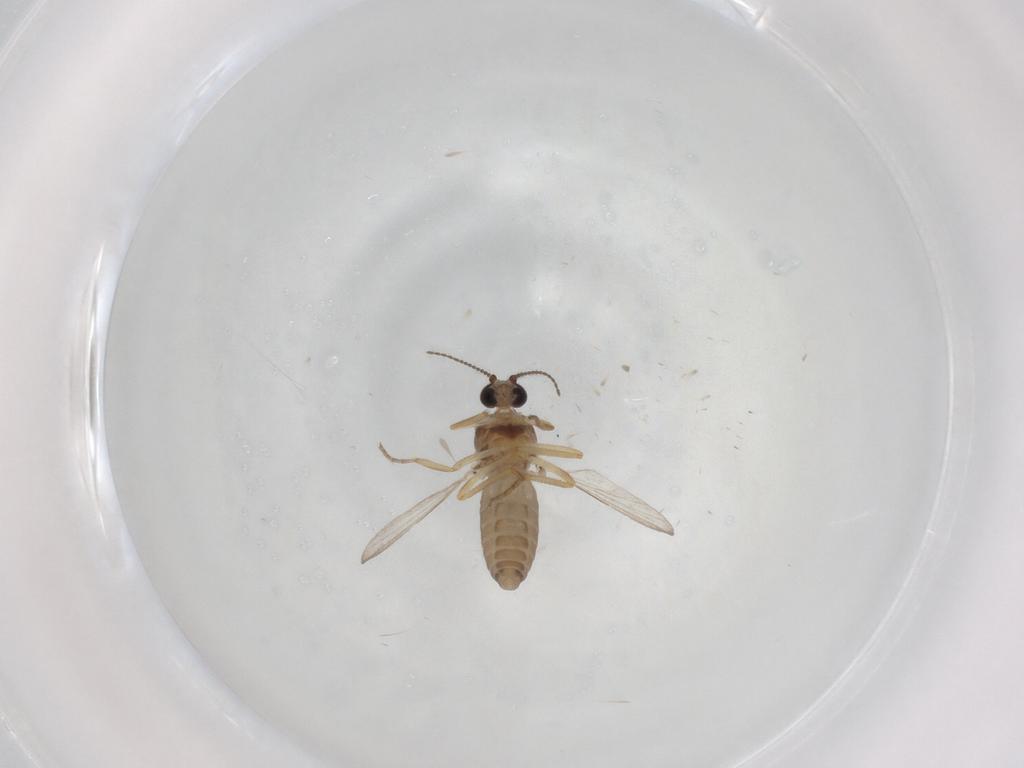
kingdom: Animalia
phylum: Arthropoda
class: Insecta
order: Diptera
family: Ceratopogonidae
